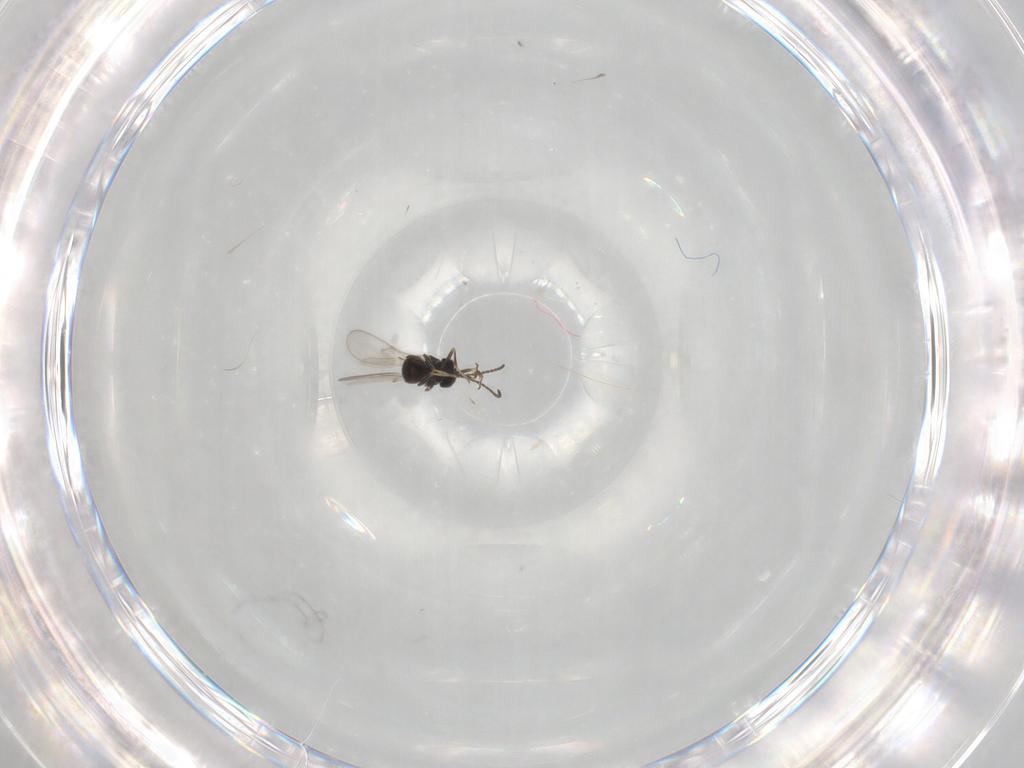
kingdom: Animalia
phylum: Arthropoda
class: Insecta
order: Hymenoptera
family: Scelionidae
